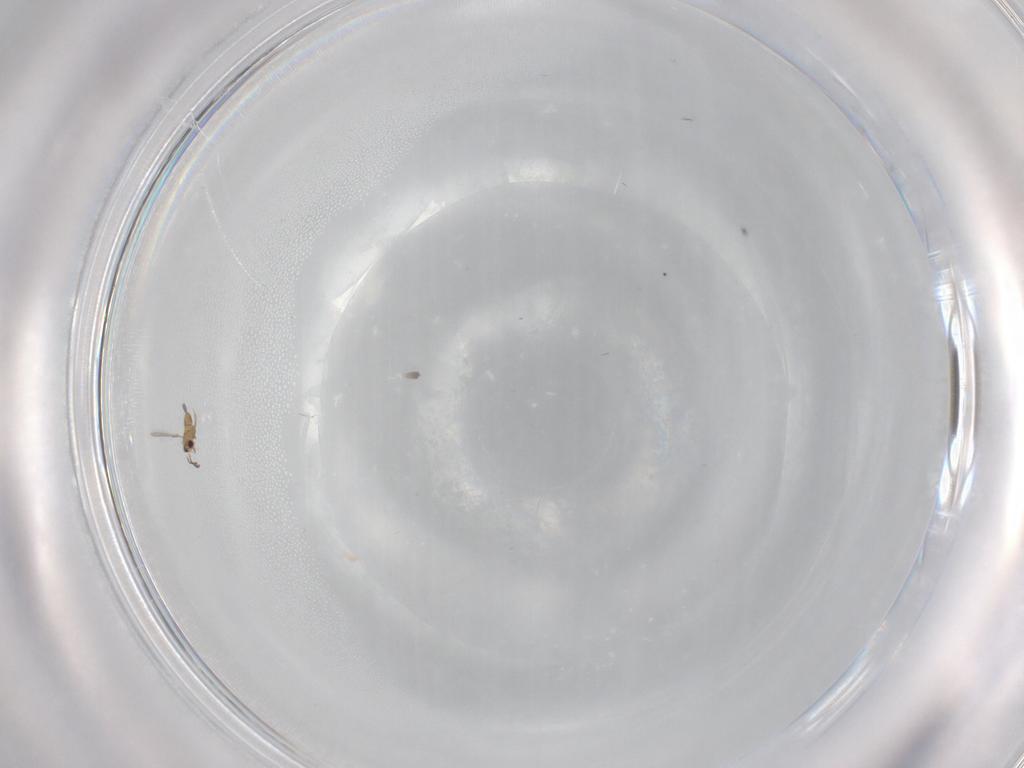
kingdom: Animalia
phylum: Arthropoda
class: Insecta
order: Hymenoptera
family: Mymaridae
